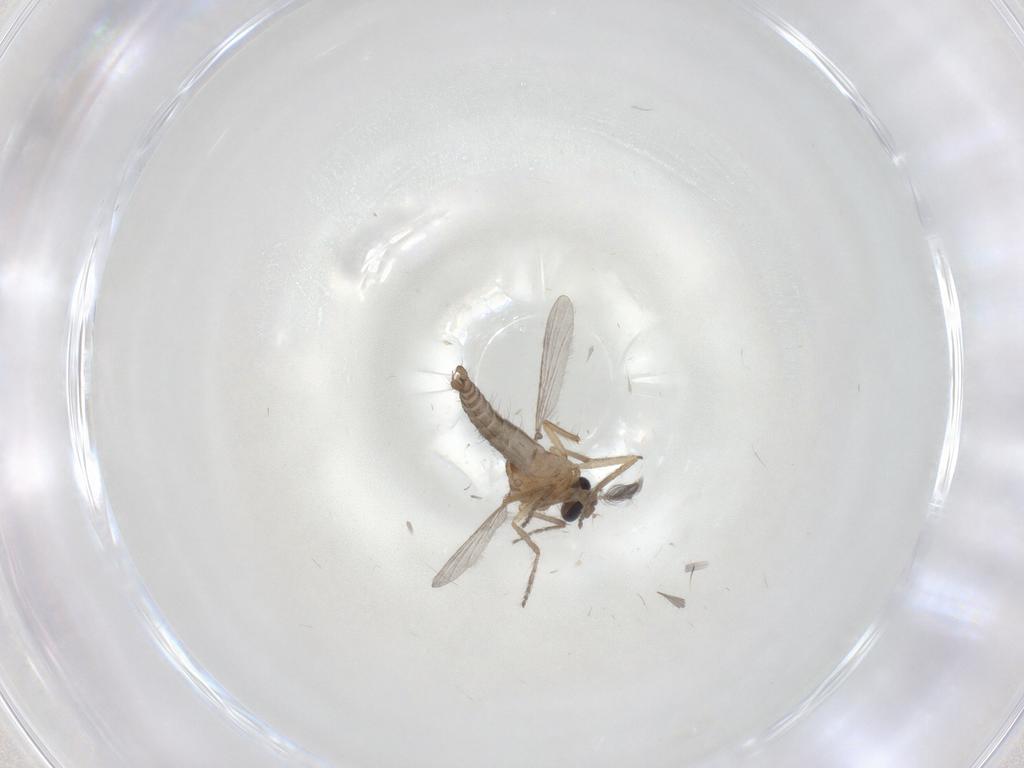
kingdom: Animalia
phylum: Arthropoda
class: Insecta
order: Diptera
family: Ceratopogonidae
